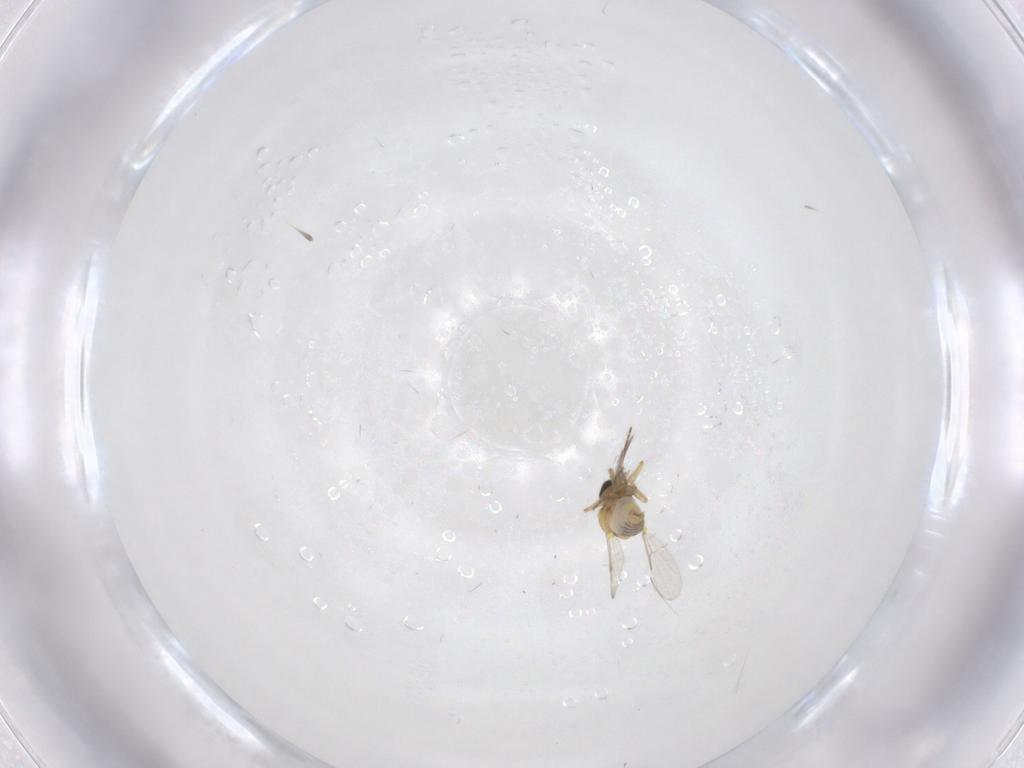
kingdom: Animalia
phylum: Arthropoda
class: Insecta
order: Diptera
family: Ceratopogonidae
